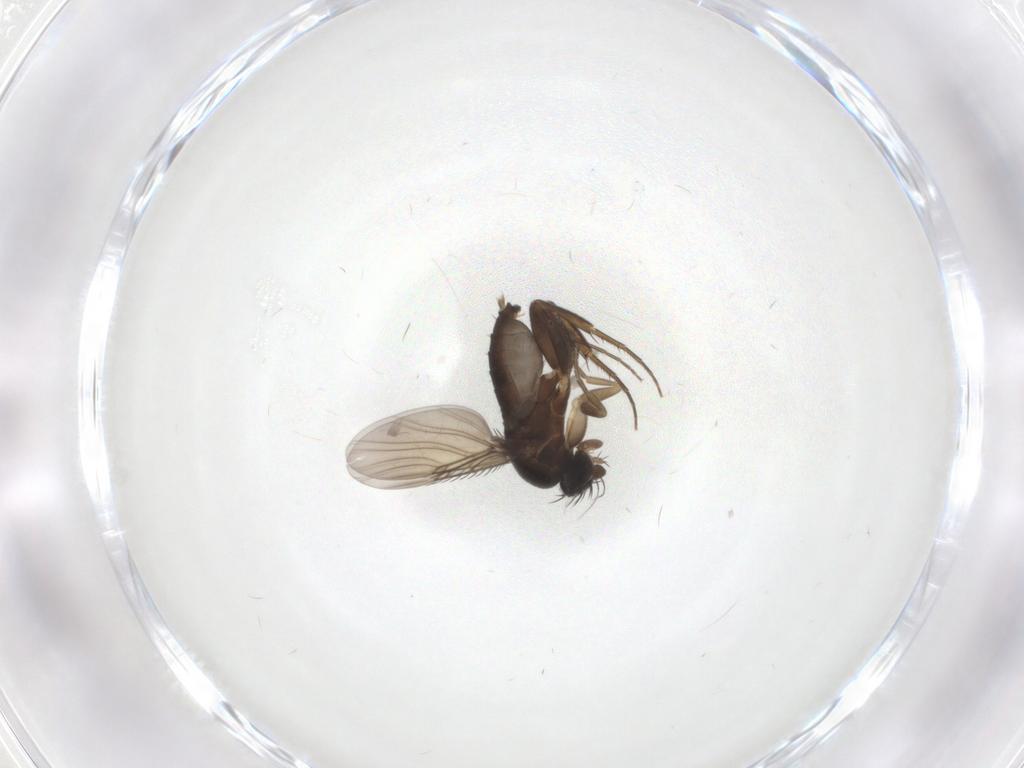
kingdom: Animalia
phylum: Arthropoda
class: Insecta
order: Diptera
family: Phoridae
